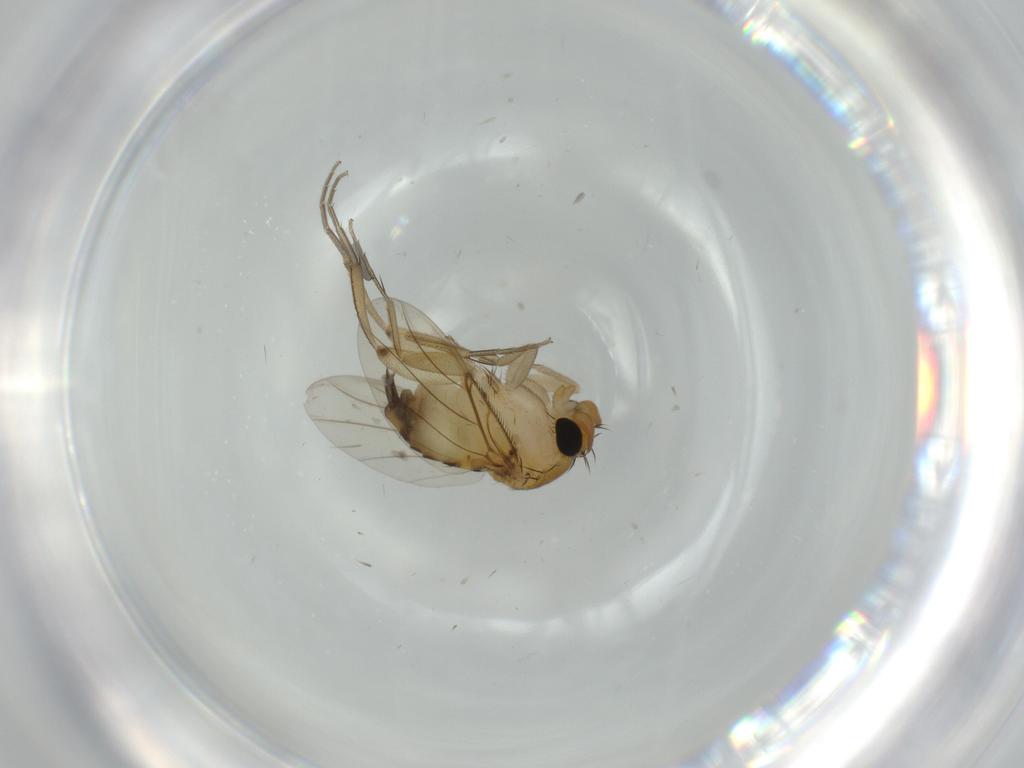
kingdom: Animalia
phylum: Arthropoda
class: Insecta
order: Diptera
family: Phoridae
